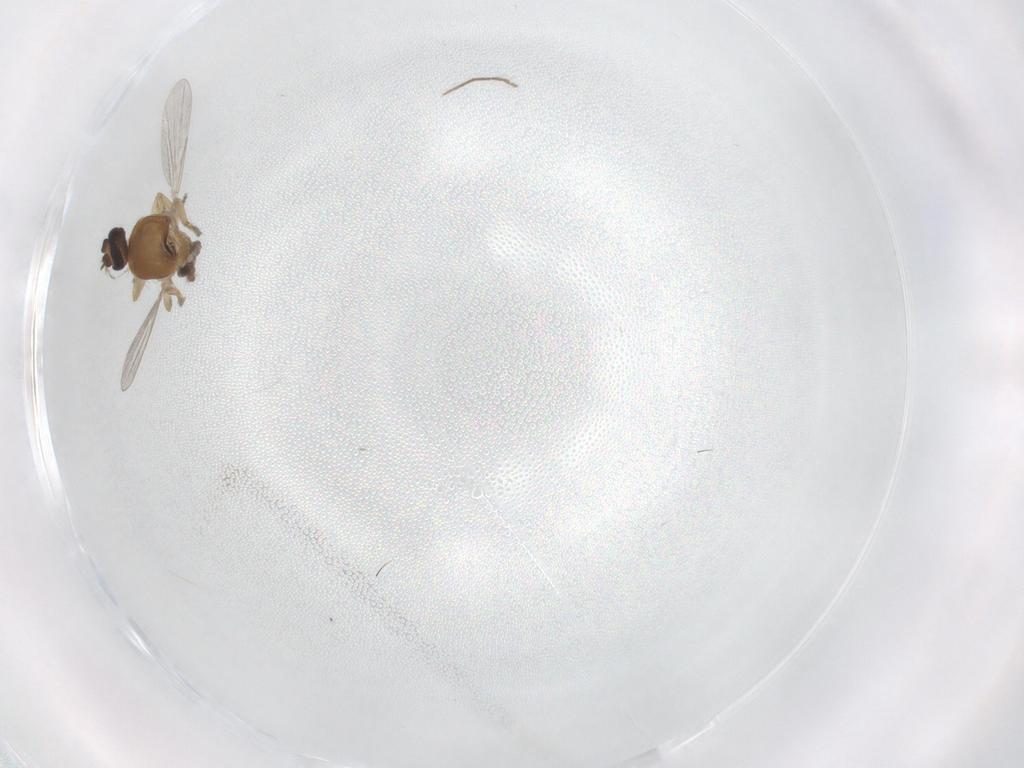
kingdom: Animalia
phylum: Arthropoda
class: Insecta
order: Diptera
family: Ceratopogonidae
